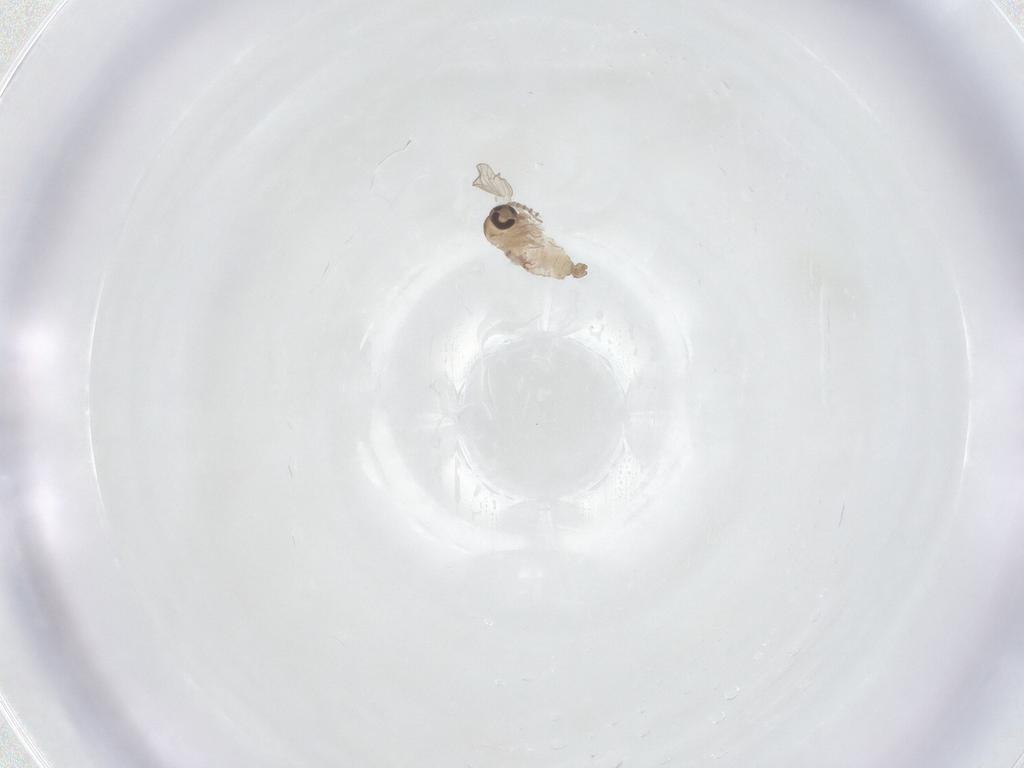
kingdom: Animalia
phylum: Arthropoda
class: Insecta
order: Diptera
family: Psychodidae
